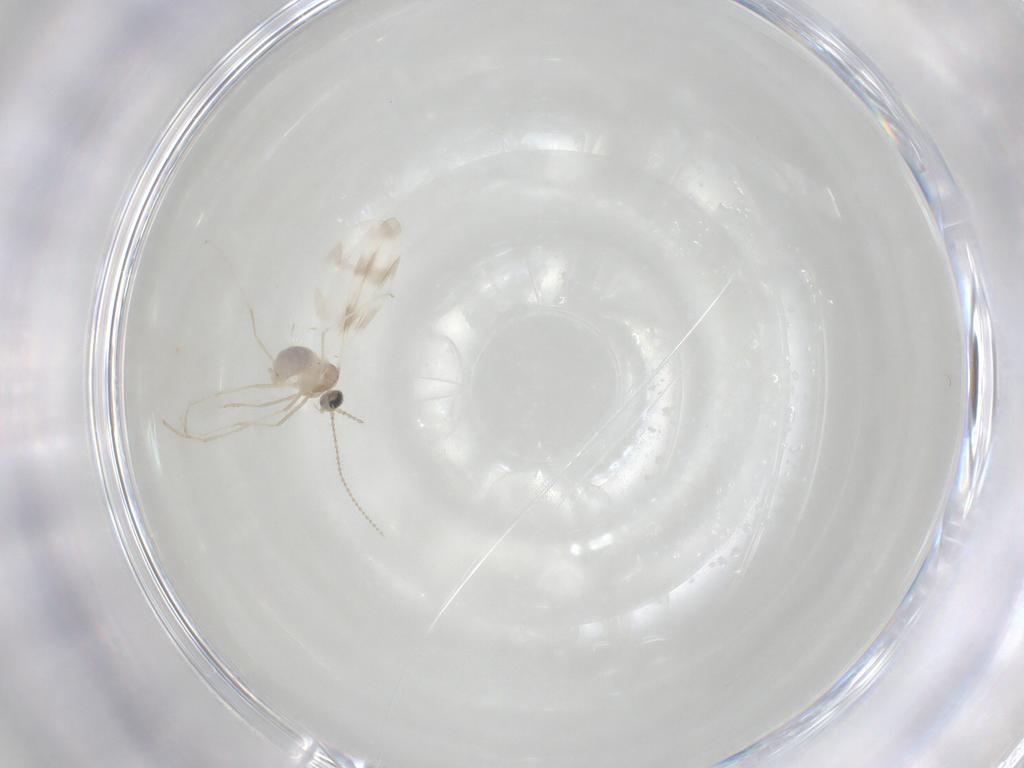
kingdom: Animalia
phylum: Arthropoda
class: Insecta
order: Diptera
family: Cecidomyiidae
